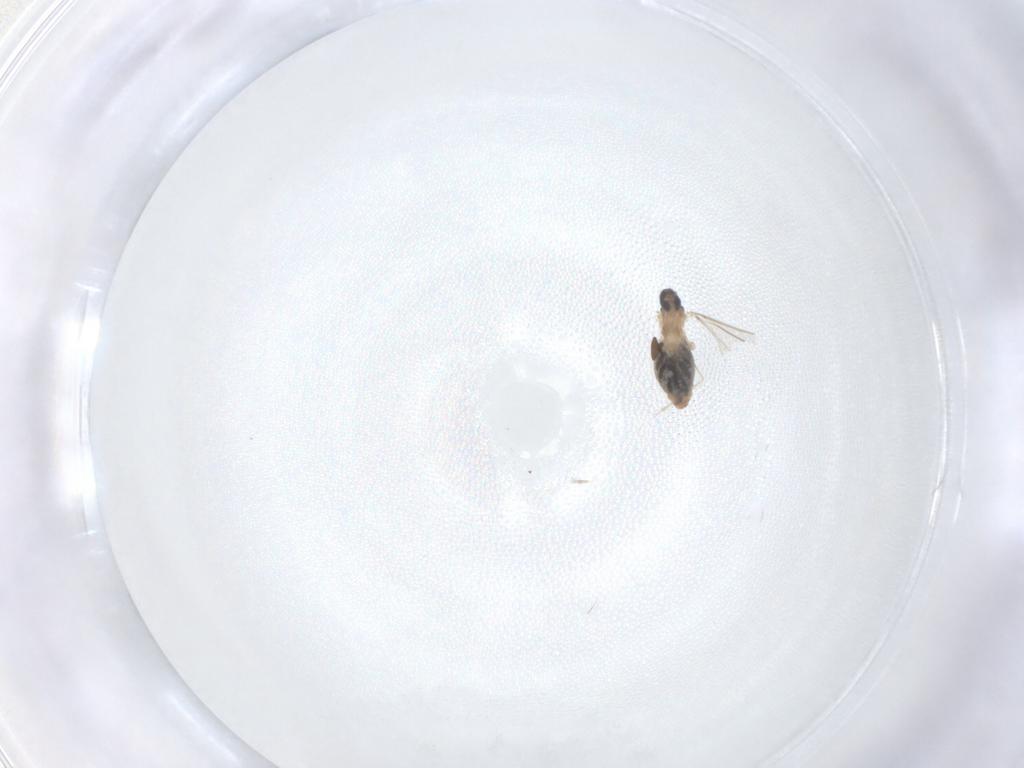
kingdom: Animalia
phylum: Arthropoda
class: Insecta
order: Diptera
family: Cecidomyiidae
